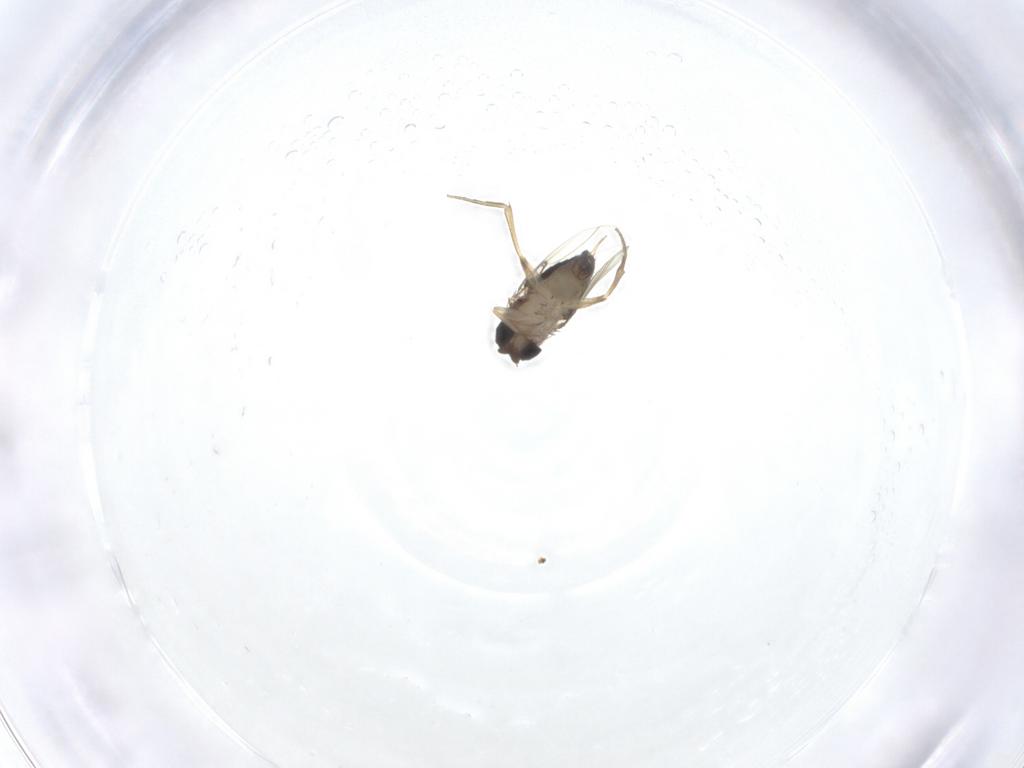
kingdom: Animalia
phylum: Arthropoda
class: Insecta
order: Diptera
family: Phoridae
